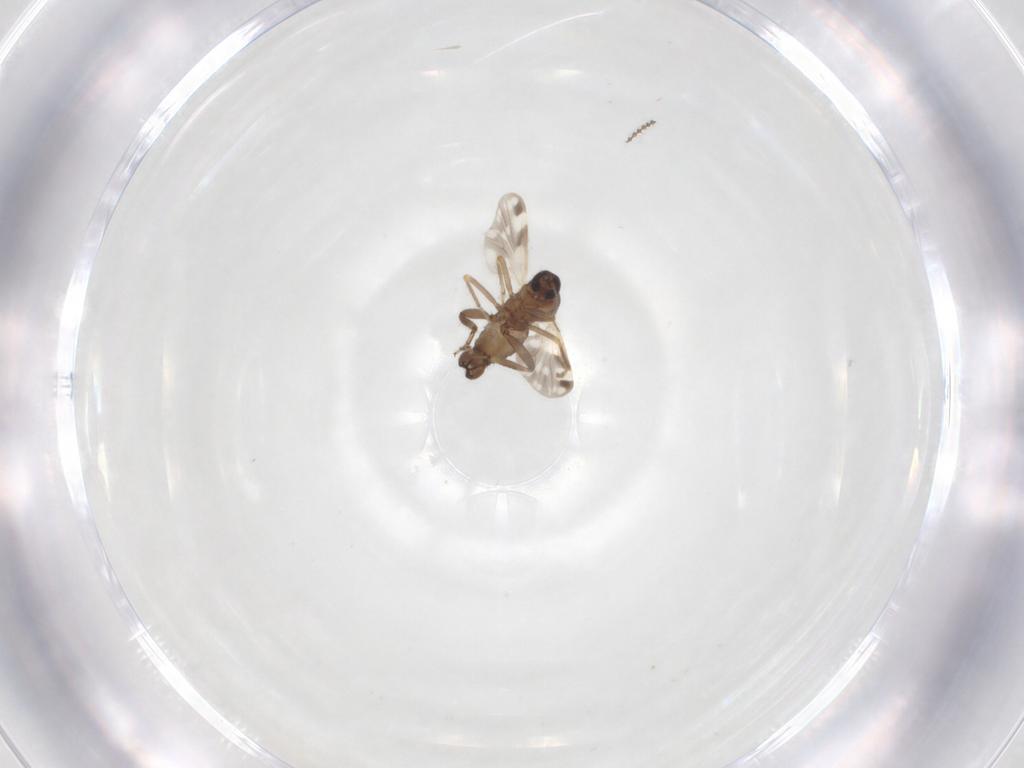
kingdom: Animalia
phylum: Arthropoda
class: Insecta
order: Diptera
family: Ceratopogonidae
